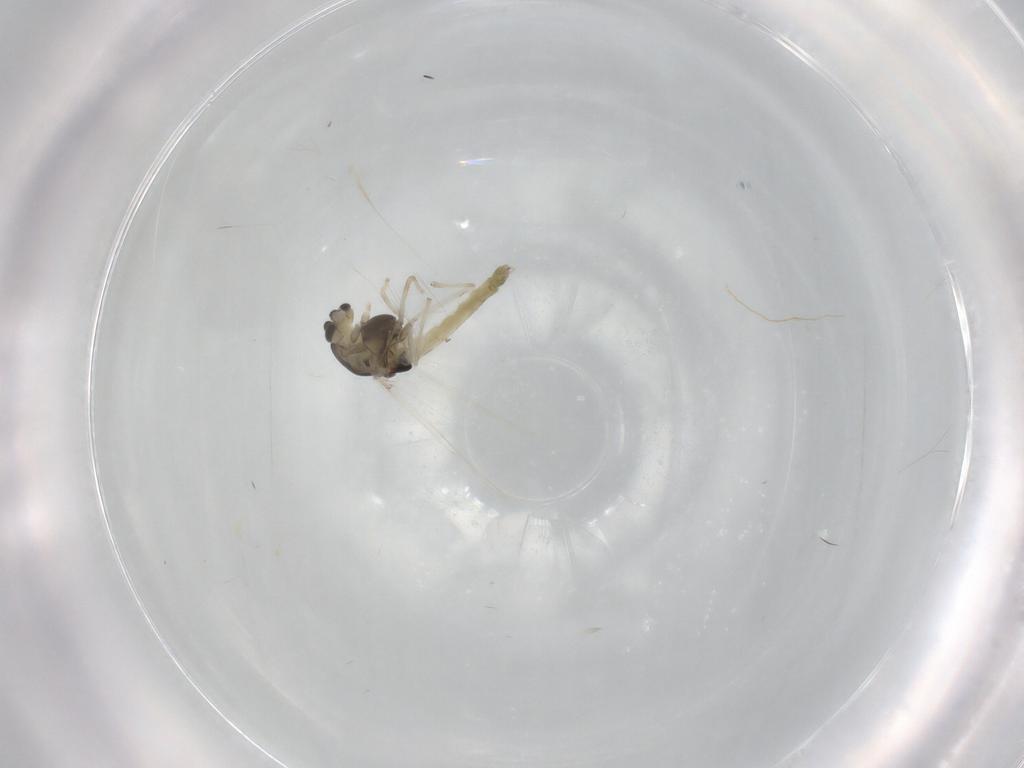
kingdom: Animalia
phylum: Arthropoda
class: Insecta
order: Diptera
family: Chironomidae
